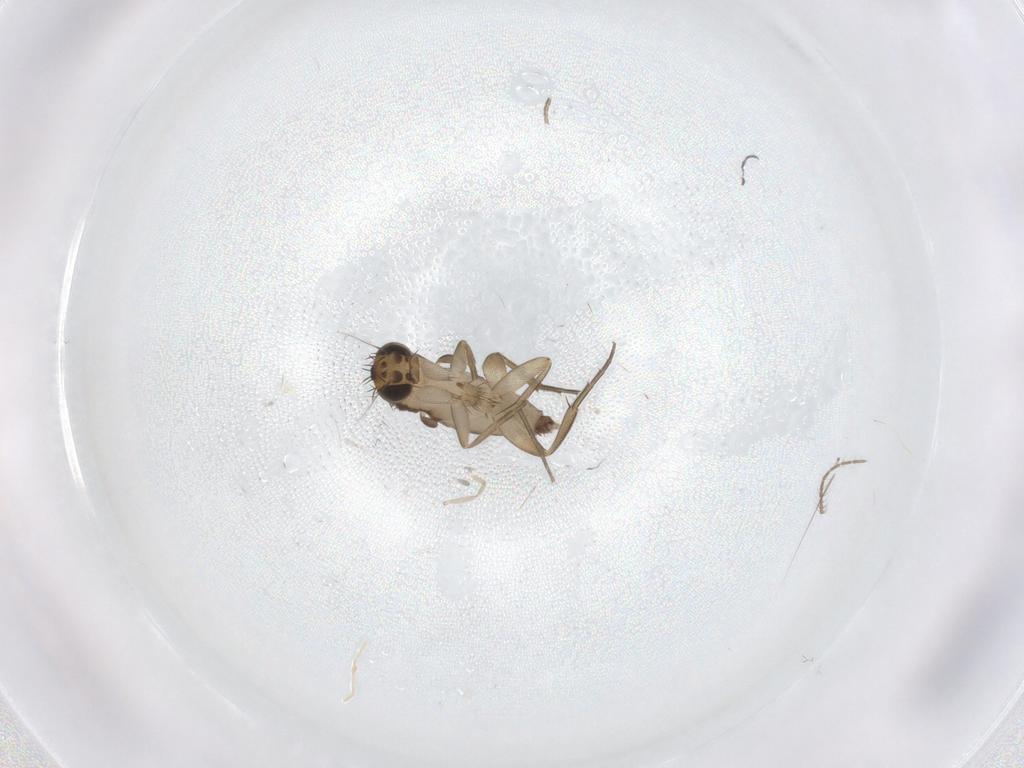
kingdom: Animalia
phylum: Arthropoda
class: Insecta
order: Diptera
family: Phoridae
